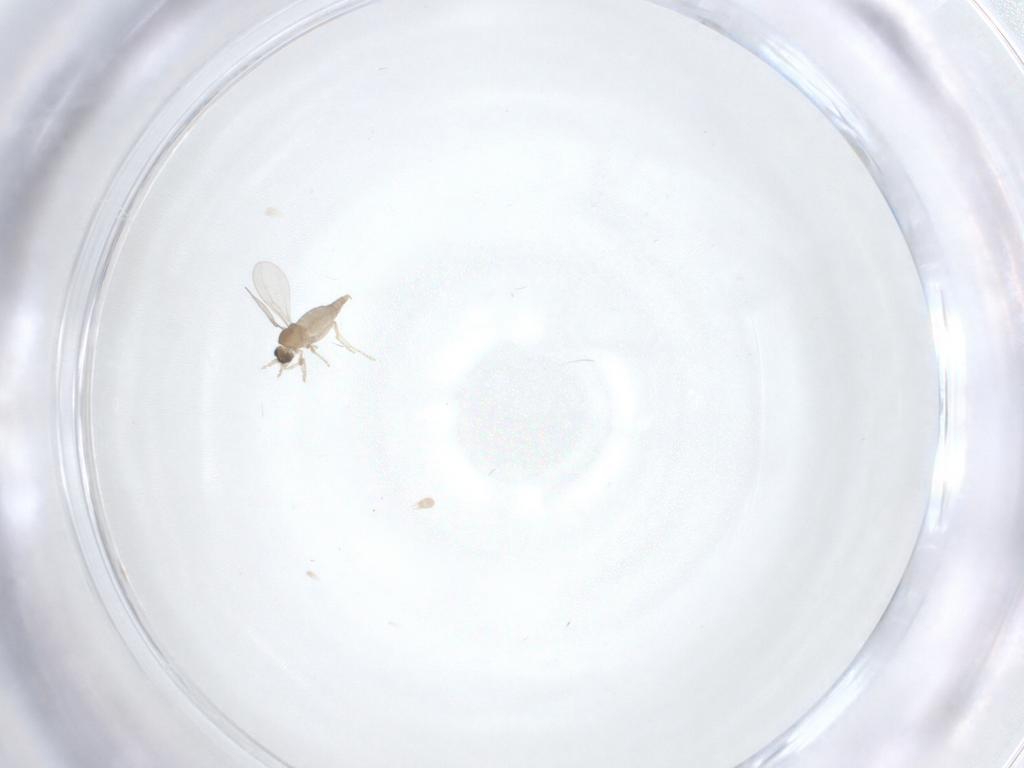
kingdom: Animalia
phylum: Arthropoda
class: Insecta
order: Diptera
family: Cecidomyiidae
